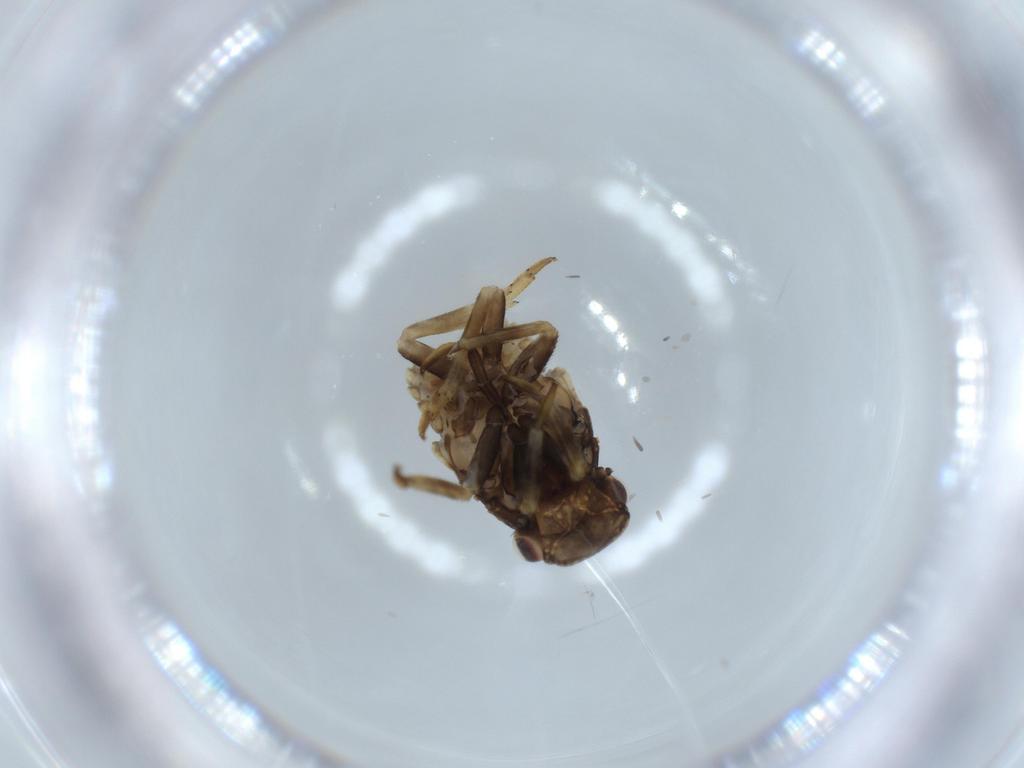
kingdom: Animalia
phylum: Arthropoda
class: Insecta
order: Hemiptera
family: Fulgoroidea_incertae_sedis
